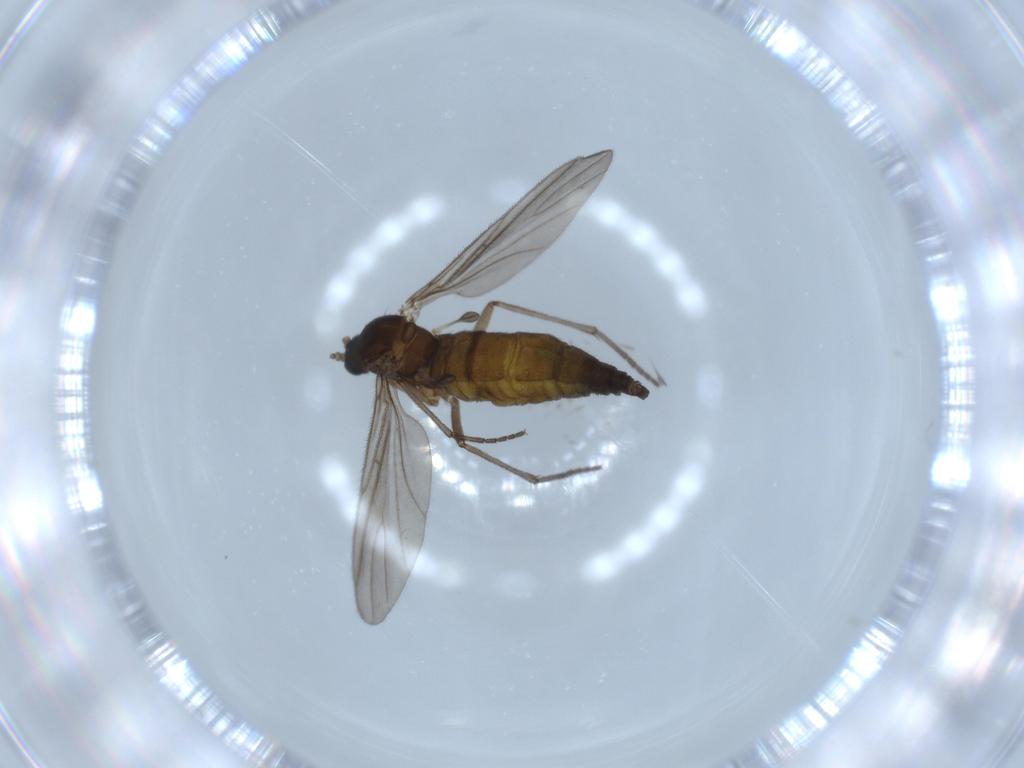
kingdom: Animalia
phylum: Arthropoda
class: Insecta
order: Diptera
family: Sciaridae
